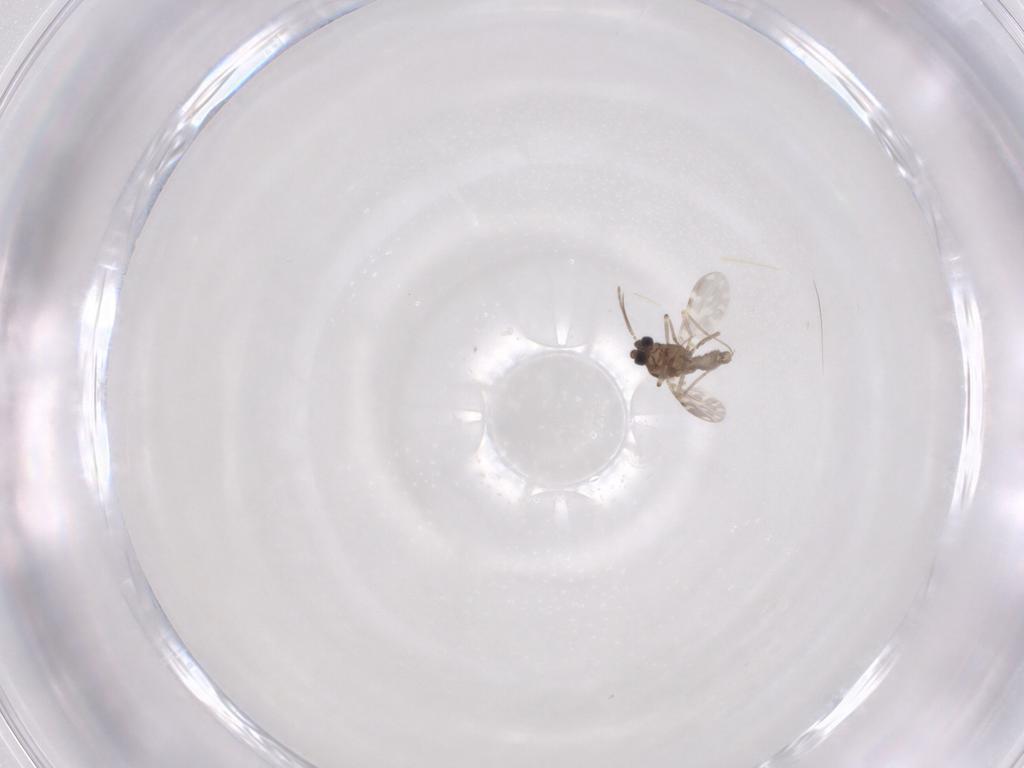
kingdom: Animalia
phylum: Arthropoda
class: Insecta
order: Diptera
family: Ceratopogonidae
